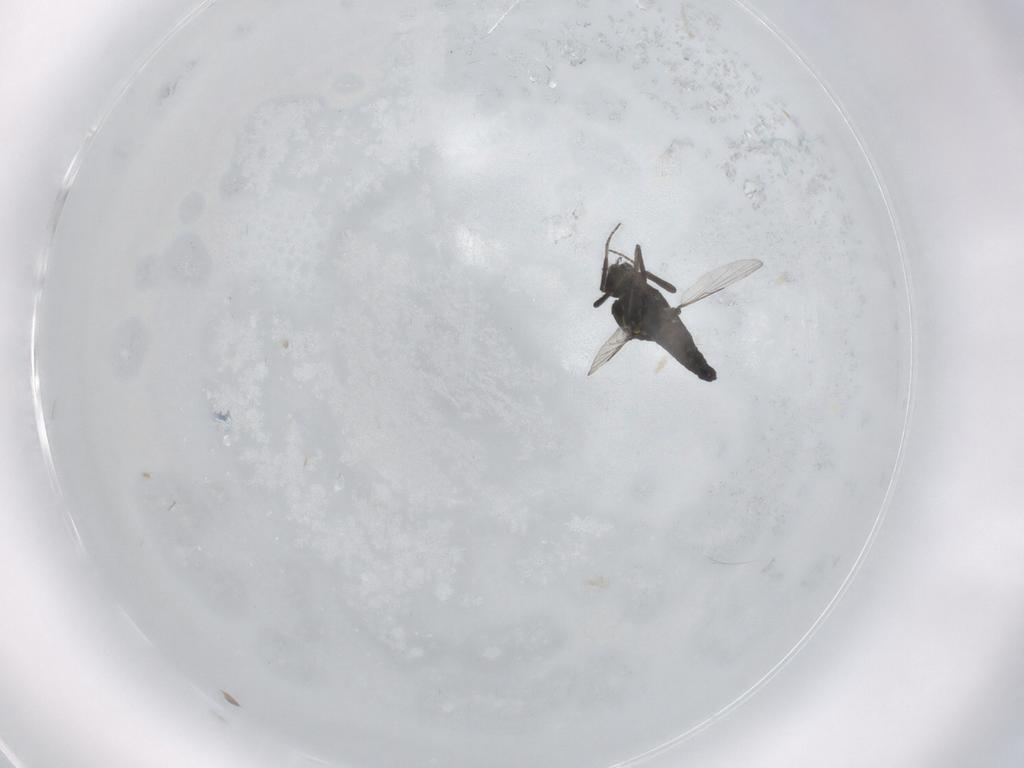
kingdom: Animalia
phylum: Arthropoda
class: Insecta
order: Diptera
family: Ceratopogonidae
